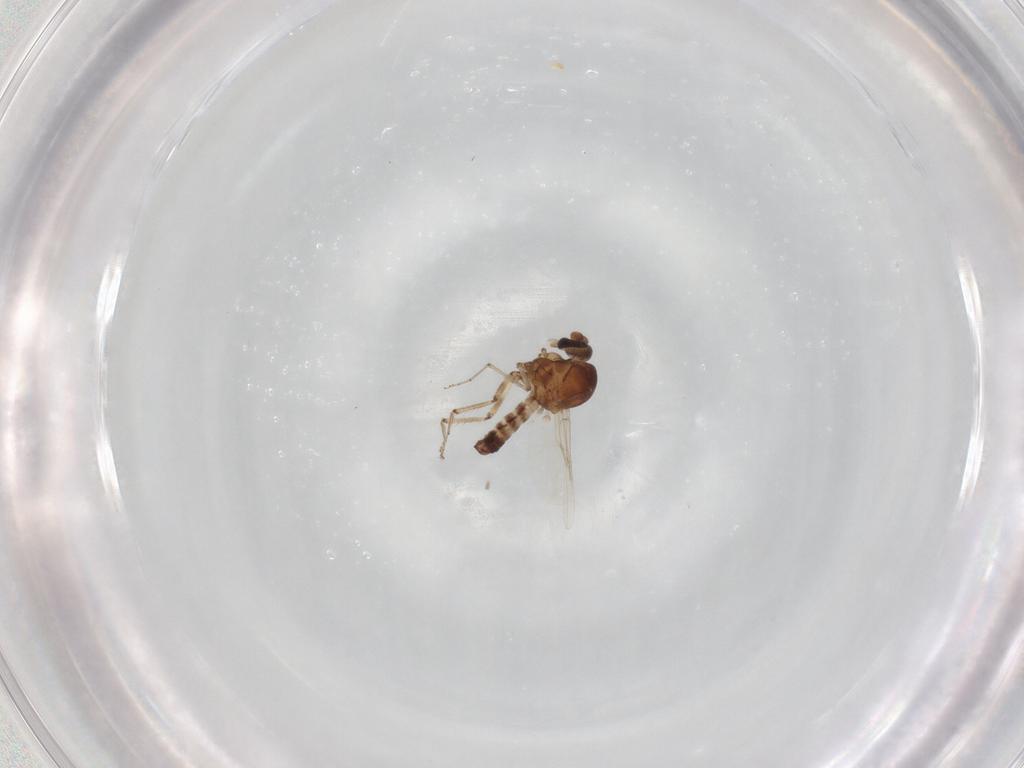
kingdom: Animalia
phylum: Arthropoda
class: Insecta
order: Diptera
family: Ceratopogonidae
